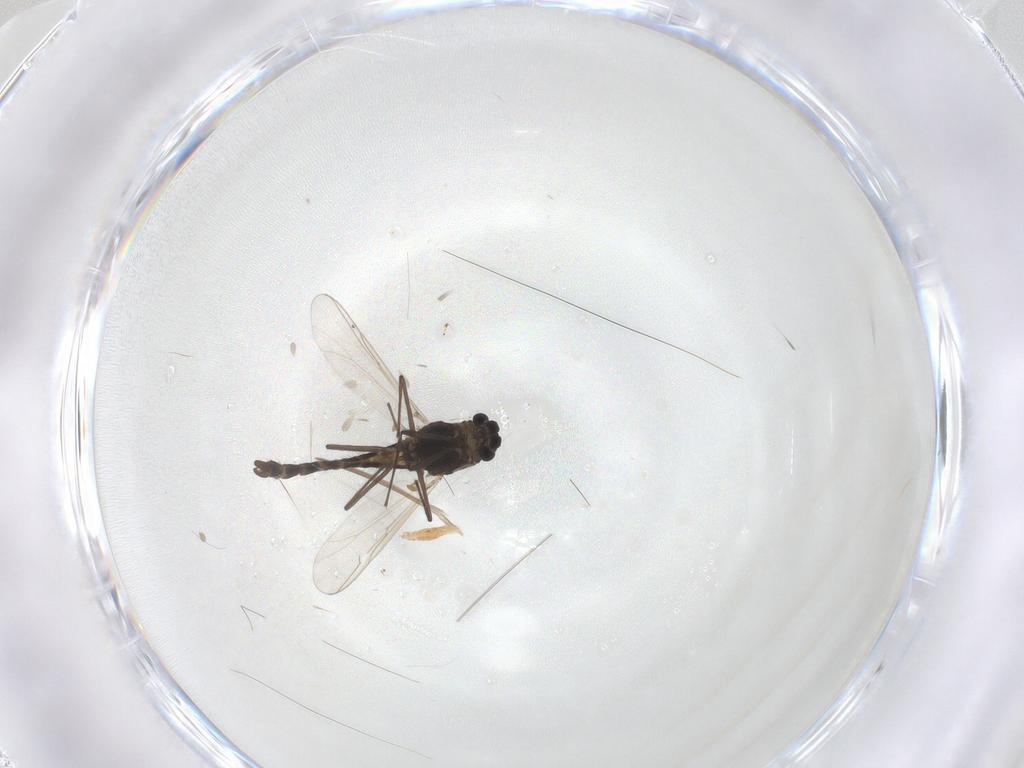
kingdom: Animalia
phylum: Arthropoda
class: Insecta
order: Diptera
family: Chironomidae
